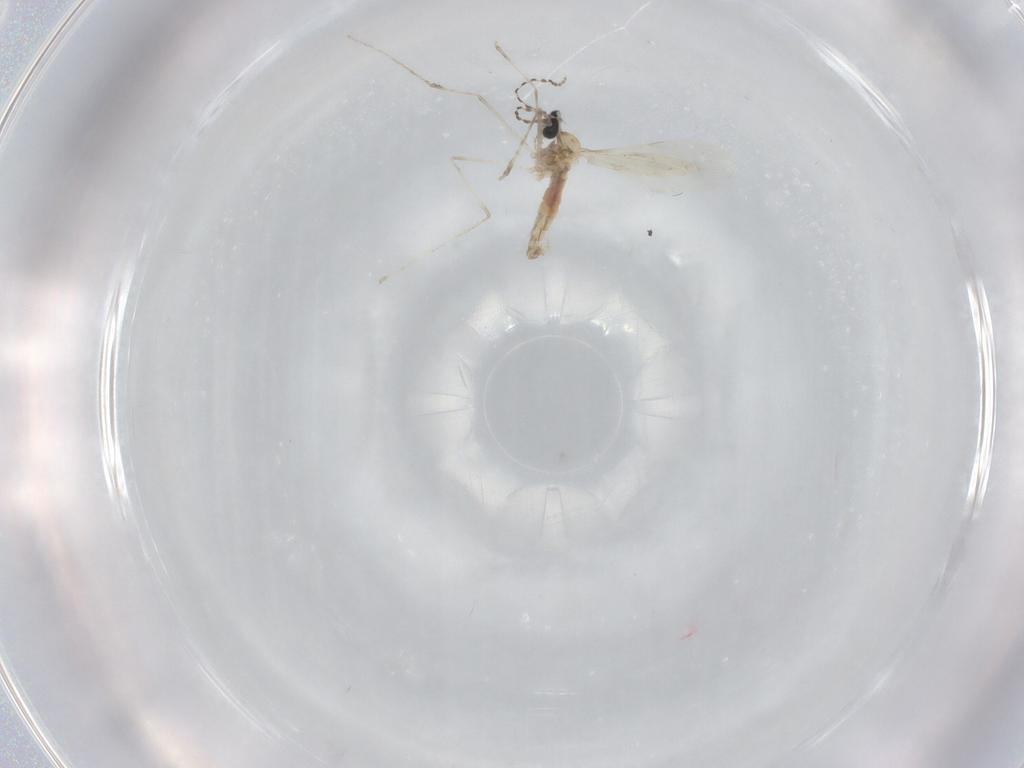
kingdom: Animalia
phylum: Arthropoda
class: Insecta
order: Diptera
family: Cecidomyiidae
